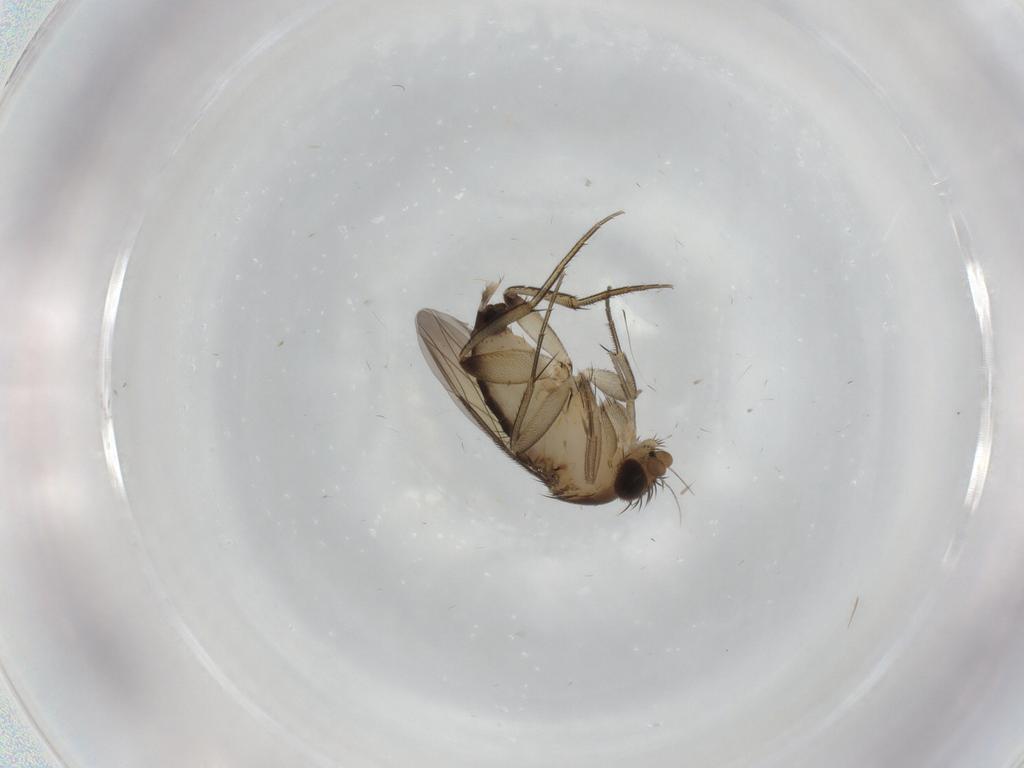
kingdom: Animalia
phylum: Arthropoda
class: Insecta
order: Diptera
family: Phoridae
